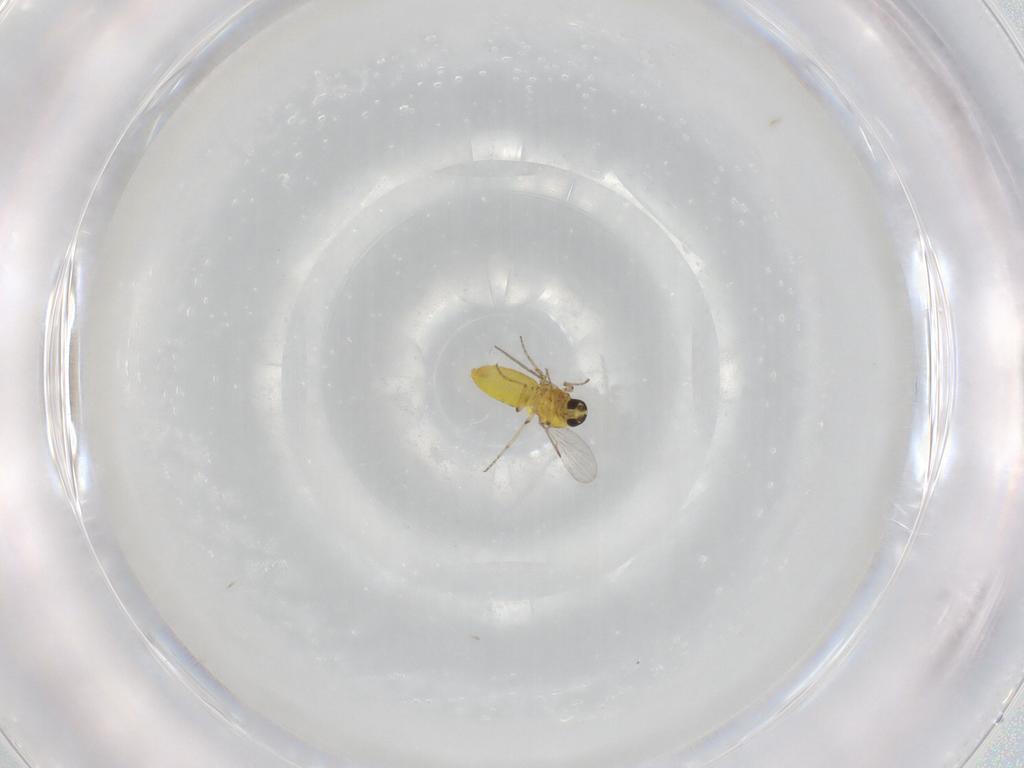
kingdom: Animalia
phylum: Arthropoda
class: Insecta
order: Diptera
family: Ceratopogonidae
